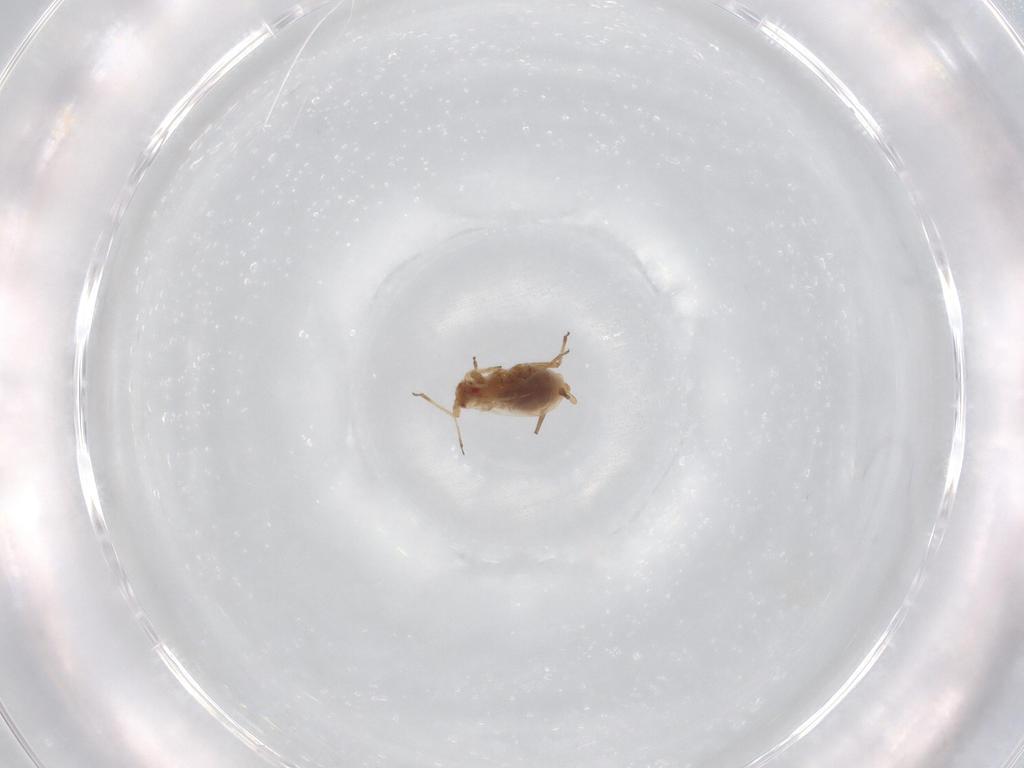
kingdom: Animalia
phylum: Arthropoda
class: Insecta
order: Hemiptera
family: Aphididae
